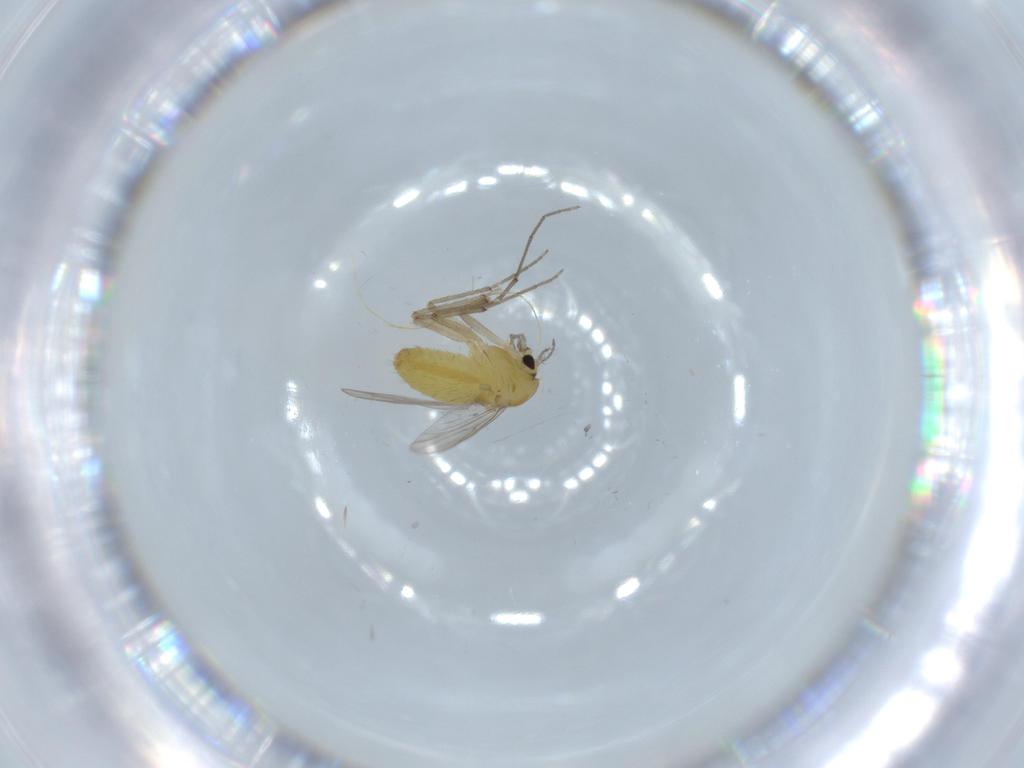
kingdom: Animalia
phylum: Arthropoda
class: Insecta
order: Diptera
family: Chironomidae
